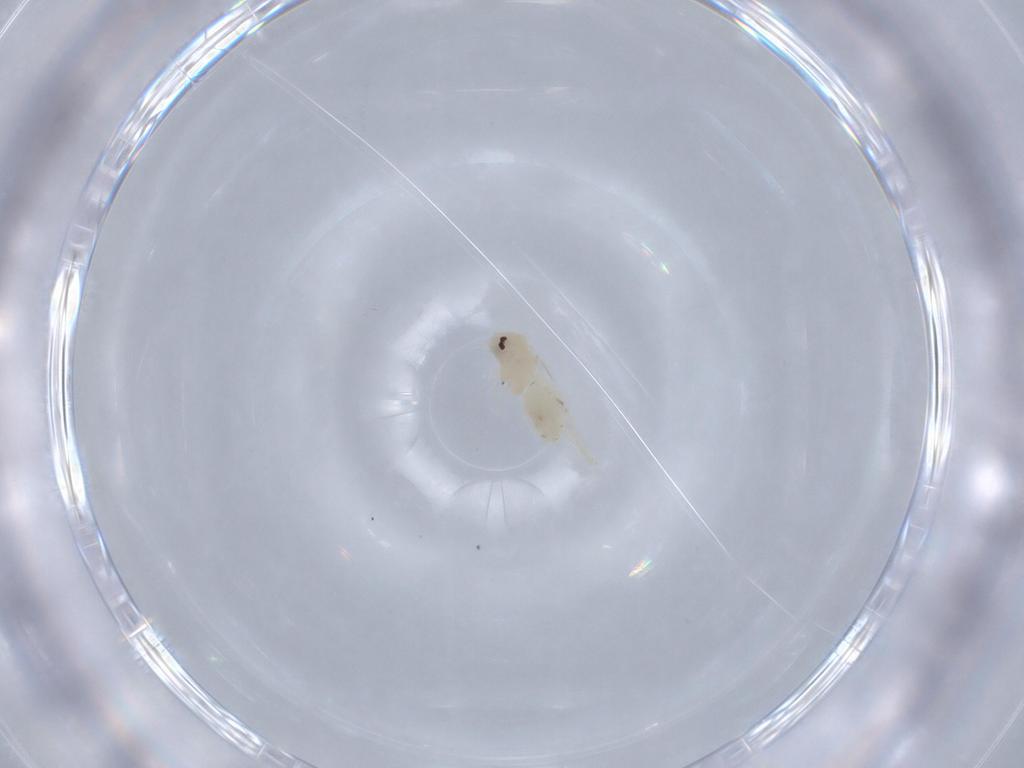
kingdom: Animalia
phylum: Arthropoda
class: Insecta
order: Hemiptera
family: Aleyrodidae
